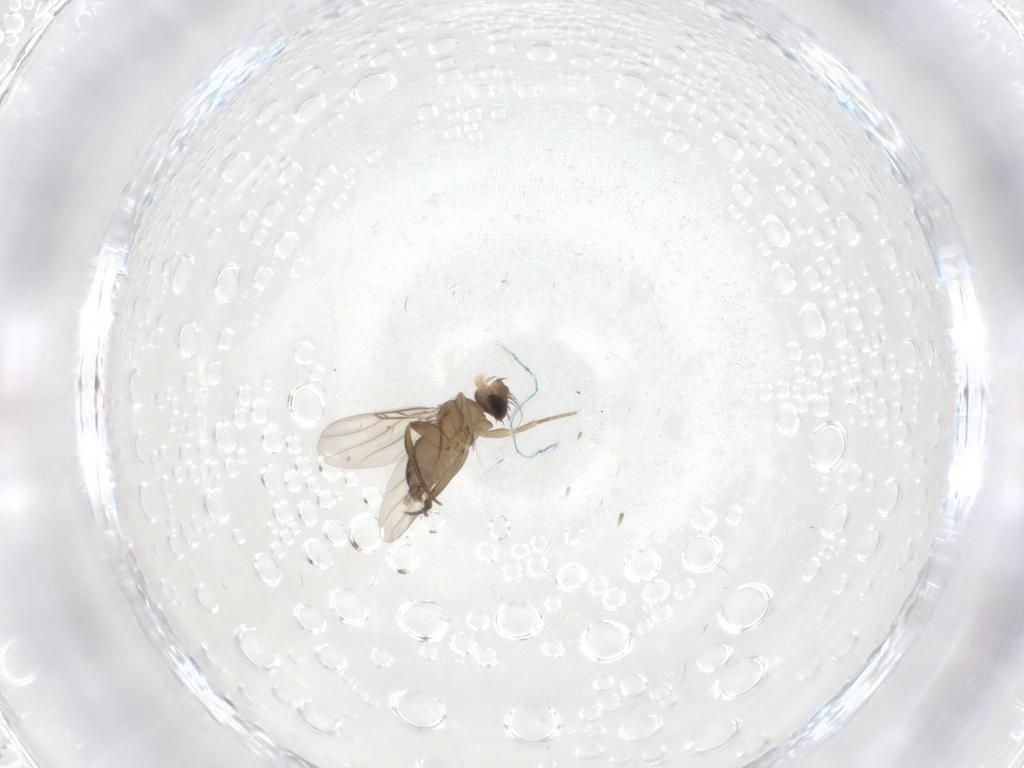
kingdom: Animalia
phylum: Arthropoda
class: Insecta
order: Diptera
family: Phoridae
